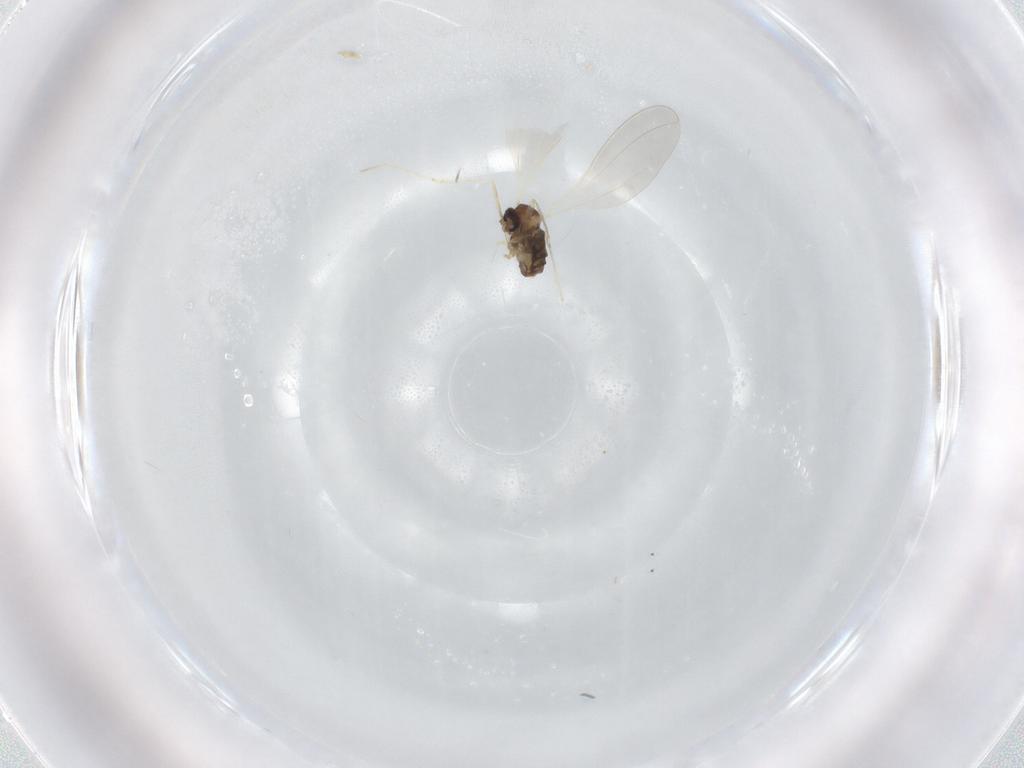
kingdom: Animalia
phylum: Arthropoda
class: Insecta
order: Diptera
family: Cecidomyiidae
